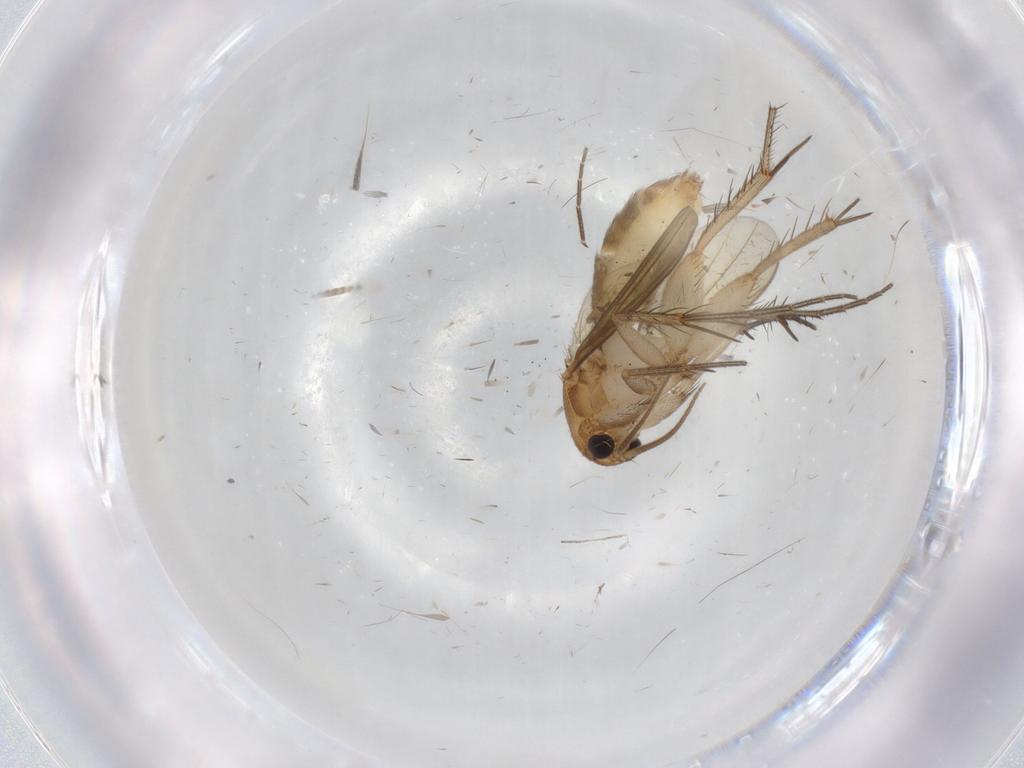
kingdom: Animalia
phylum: Arthropoda
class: Insecta
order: Diptera
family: Mycetophilidae
